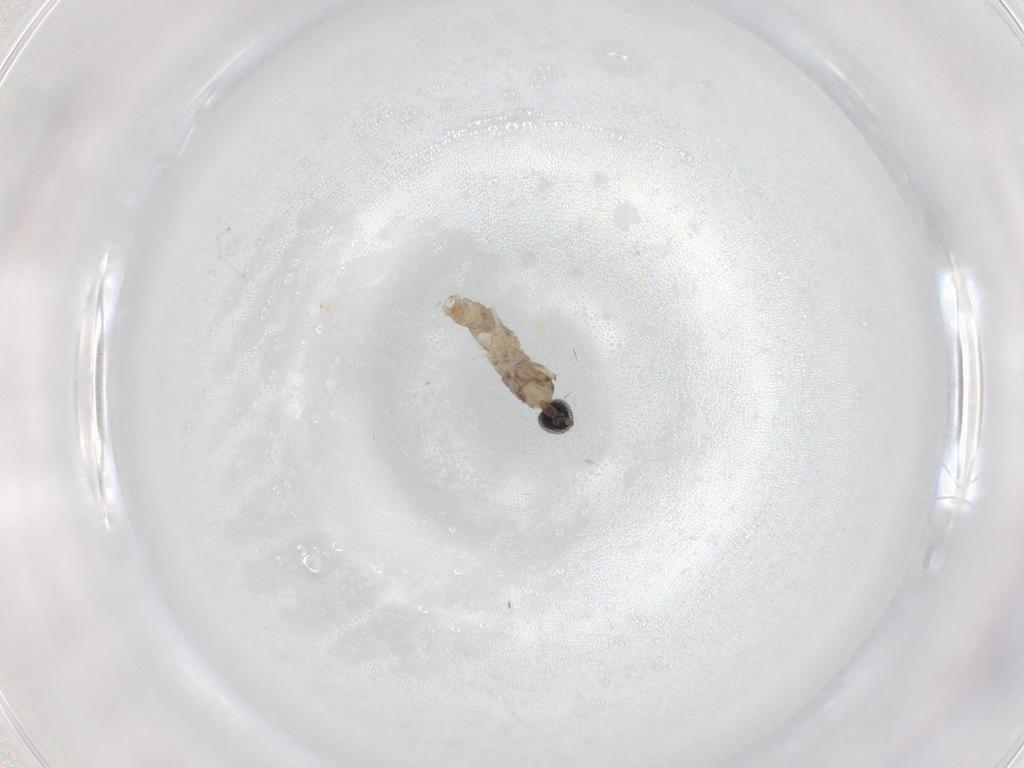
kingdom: Animalia
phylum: Arthropoda
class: Insecta
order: Diptera
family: Cecidomyiidae
